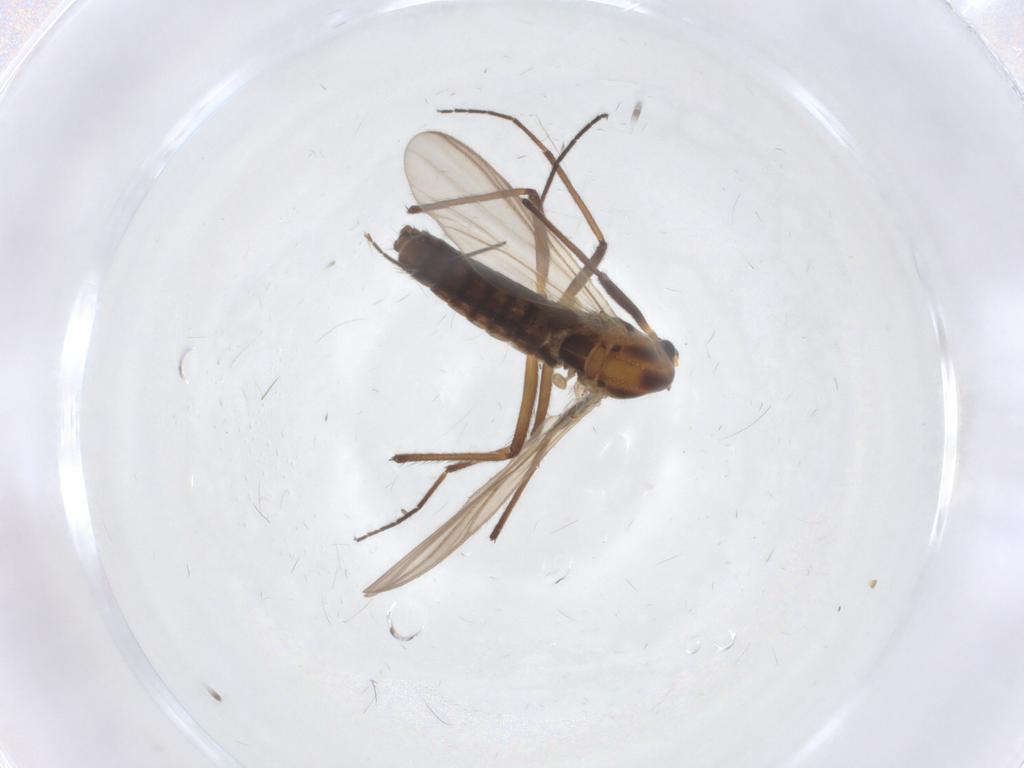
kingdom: Animalia
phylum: Arthropoda
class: Insecta
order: Diptera
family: Chironomidae
